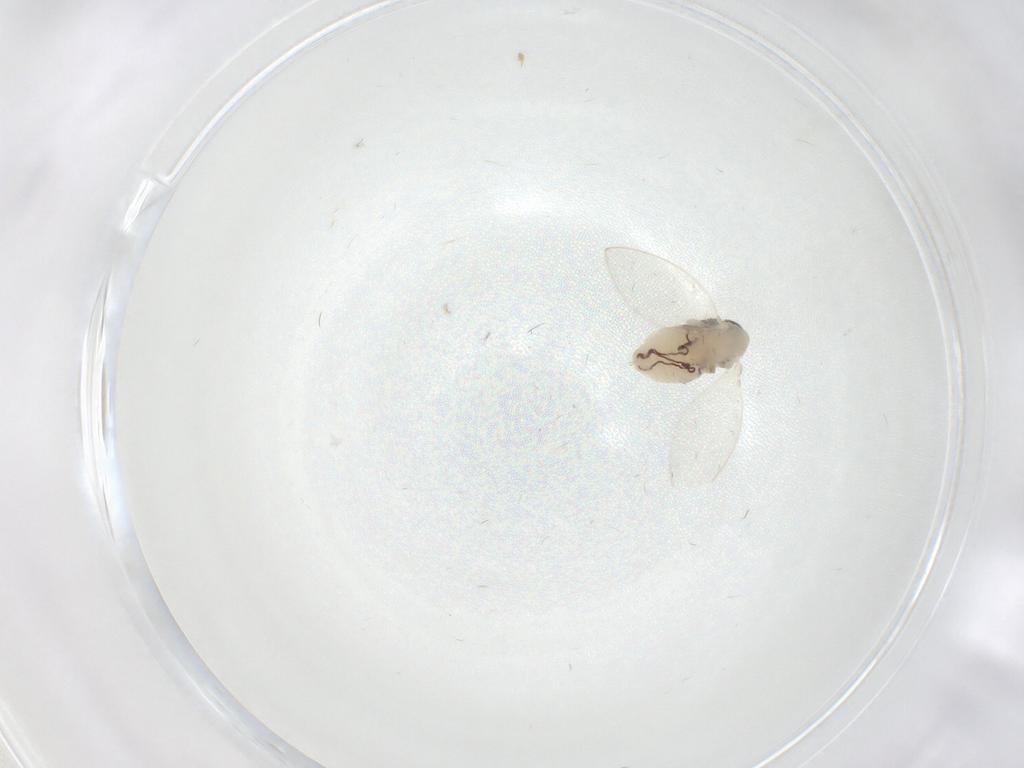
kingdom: Animalia
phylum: Arthropoda
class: Insecta
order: Diptera
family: Psychodidae
